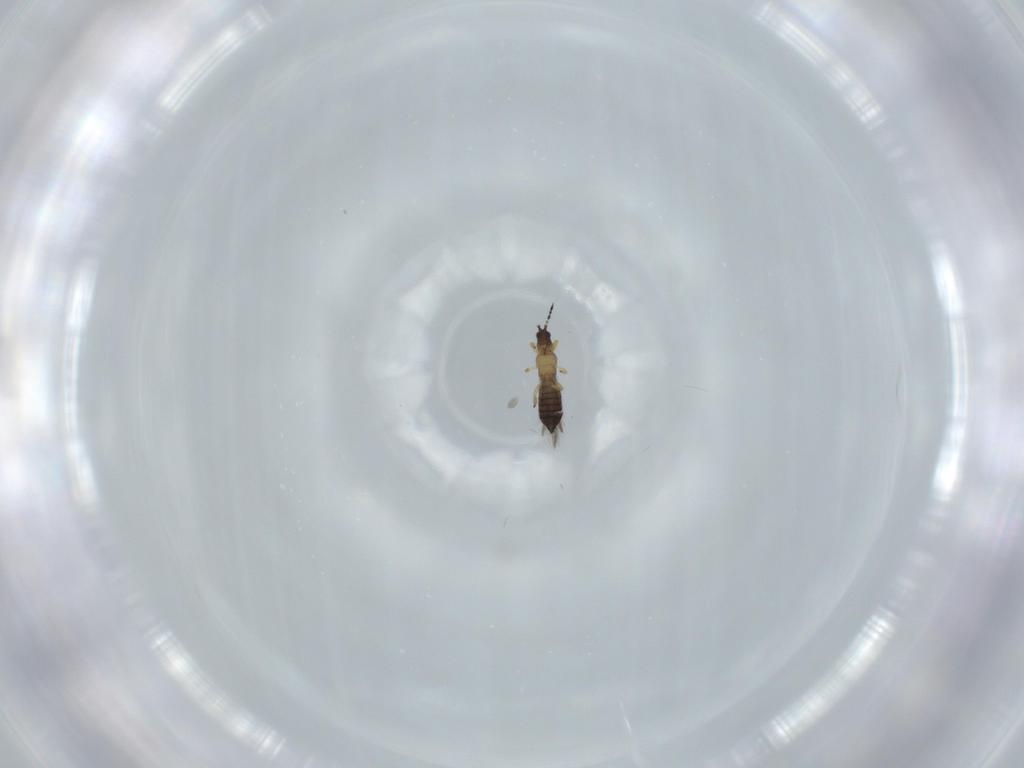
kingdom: Animalia
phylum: Arthropoda
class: Insecta
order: Thysanoptera
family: Thripidae
